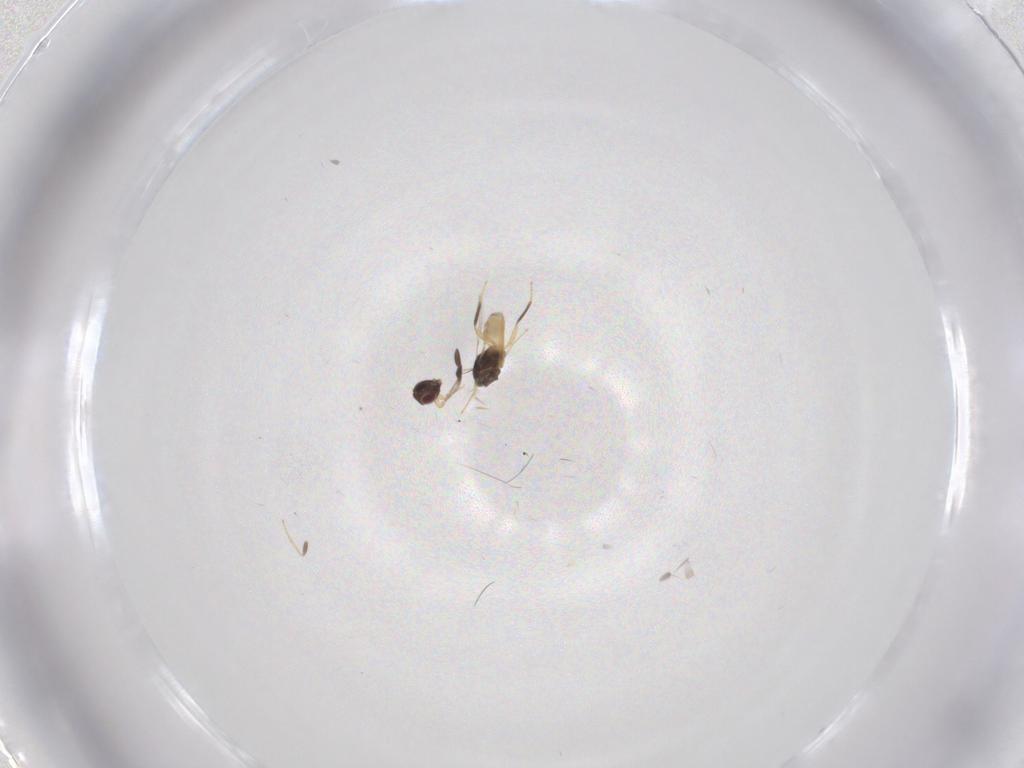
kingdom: Animalia
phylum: Arthropoda
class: Insecta
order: Hymenoptera
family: Mymaridae
